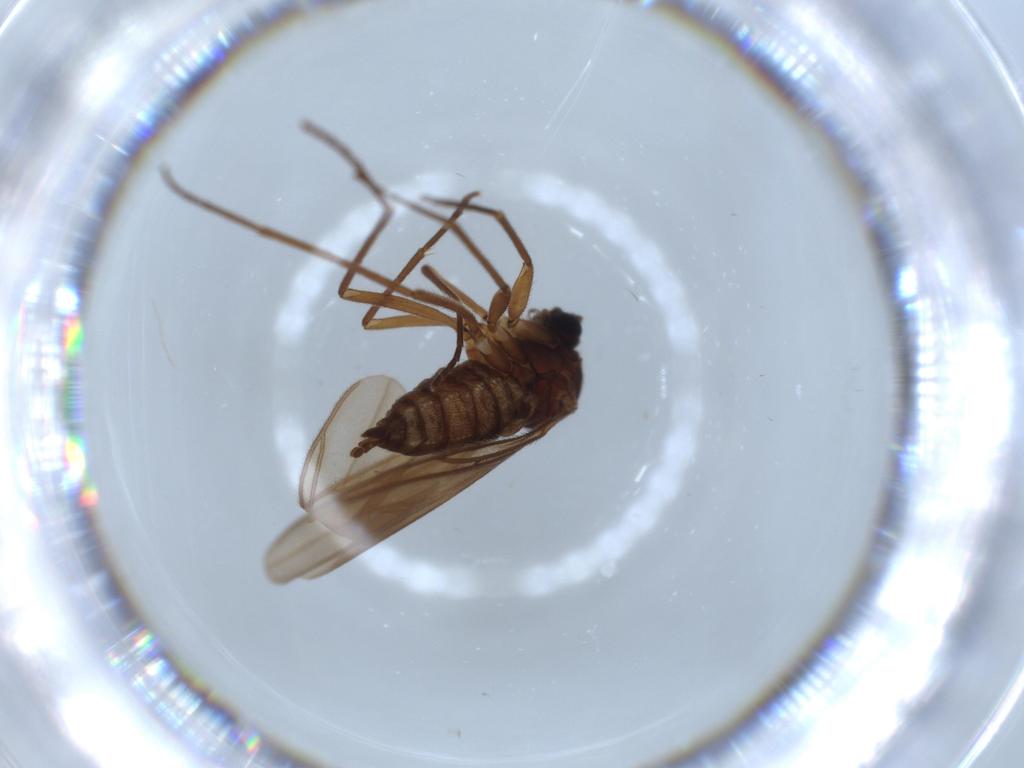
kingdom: Animalia
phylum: Arthropoda
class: Insecta
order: Diptera
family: Sciaridae
